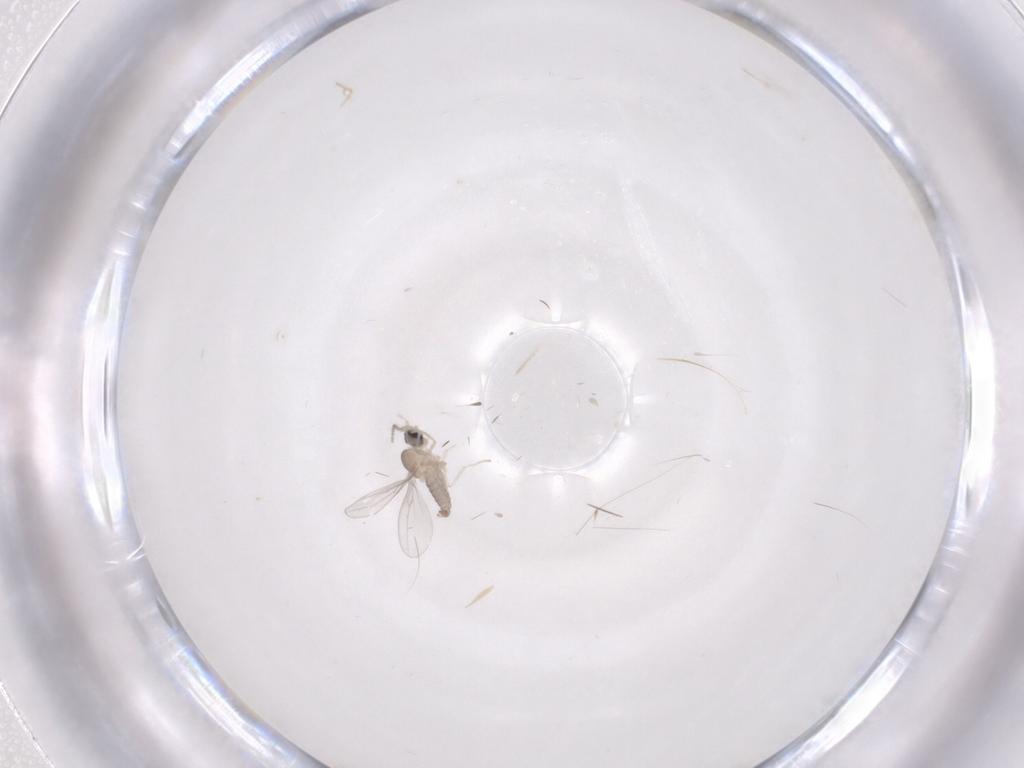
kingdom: Animalia
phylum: Arthropoda
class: Insecta
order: Diptera
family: Cecidomyiidae
